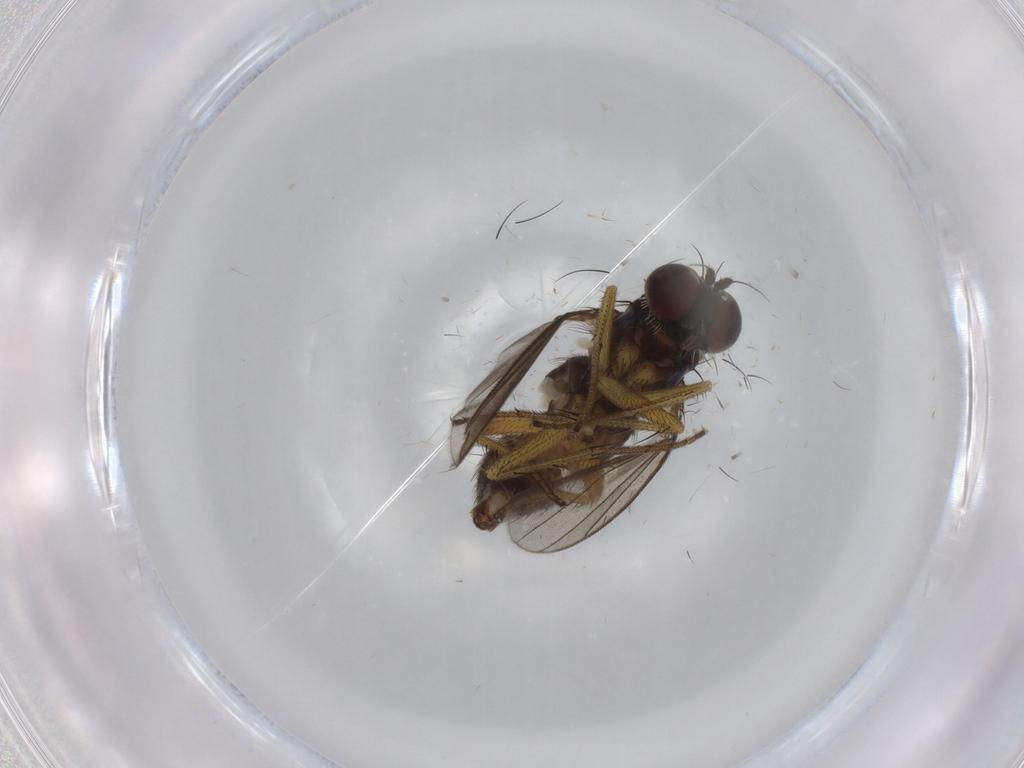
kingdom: Animalia
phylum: Arthropoda
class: Insecta
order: Diptera
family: Dolichopodidae
